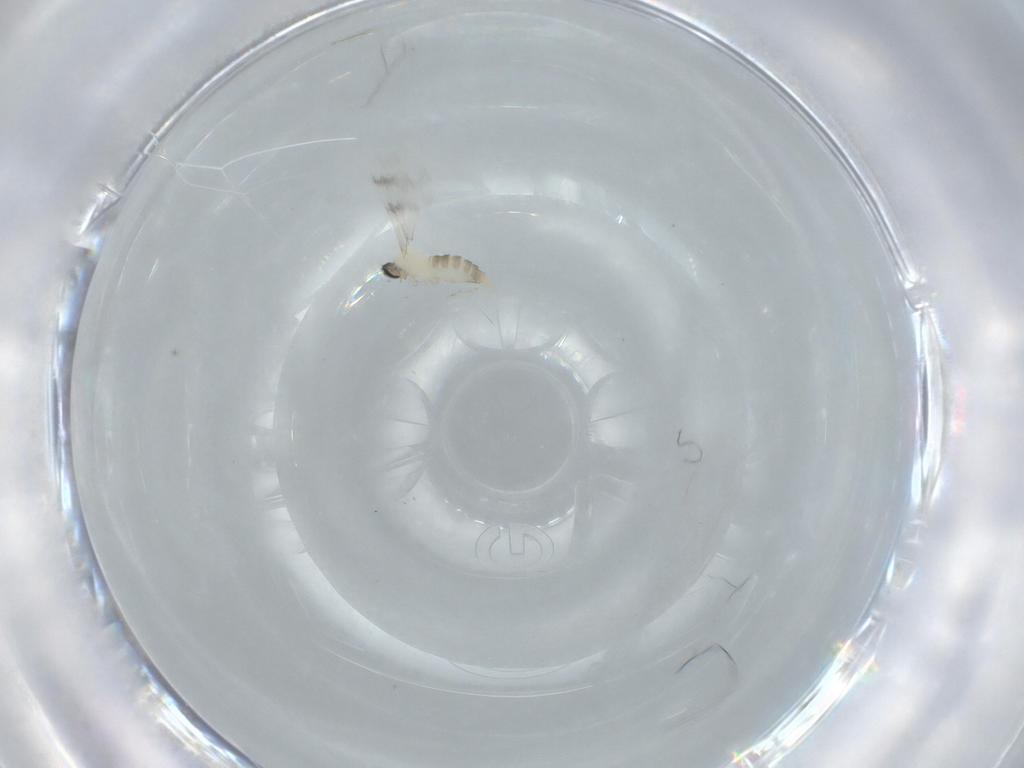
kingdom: Animalia
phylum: Arthropoda
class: Insecta
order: Diptera
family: Cecidomyiidae
